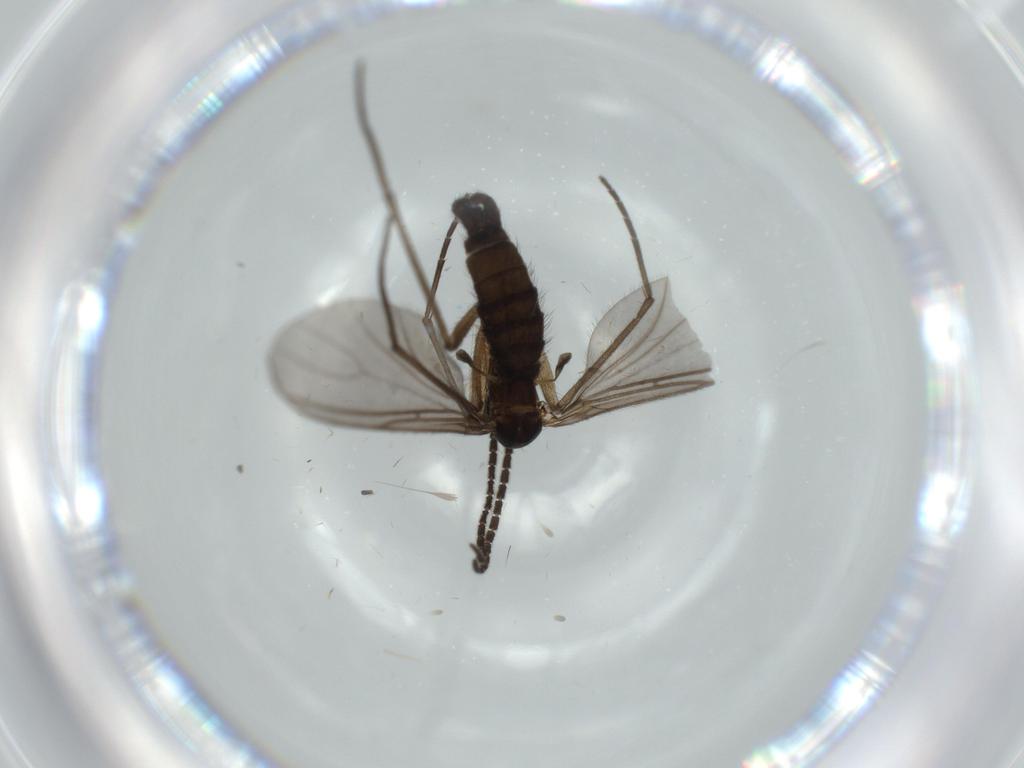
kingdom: Animalia
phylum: Arthropoda
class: Insecta
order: Diptera
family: Sciaridae
